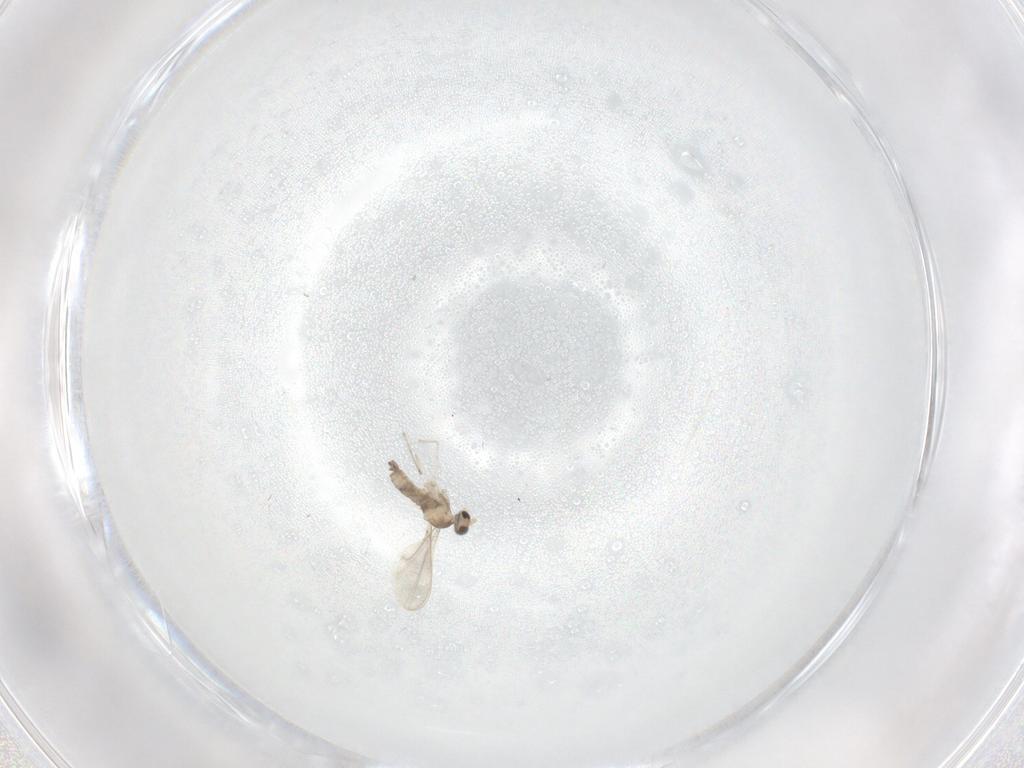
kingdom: Animalia
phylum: Arthropoda
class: Insecta
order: Diptera
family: Cecidomyiidae
